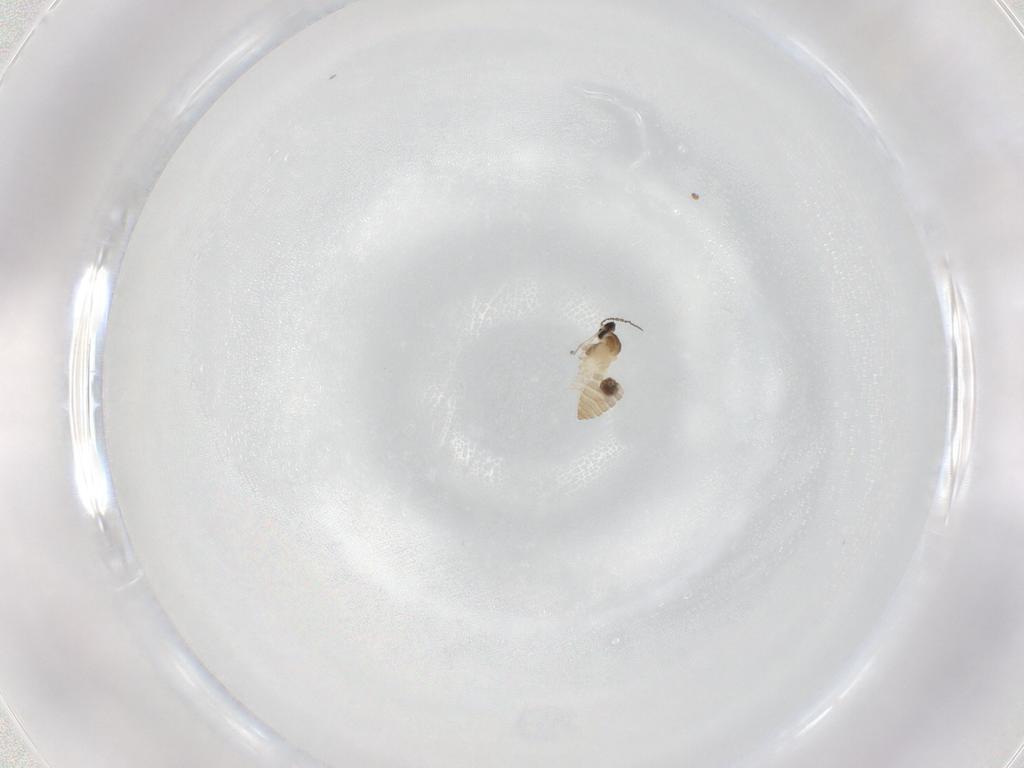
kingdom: Animalia
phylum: Arthropoda
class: Insecta
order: Diptera
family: Cecidomyiidae
